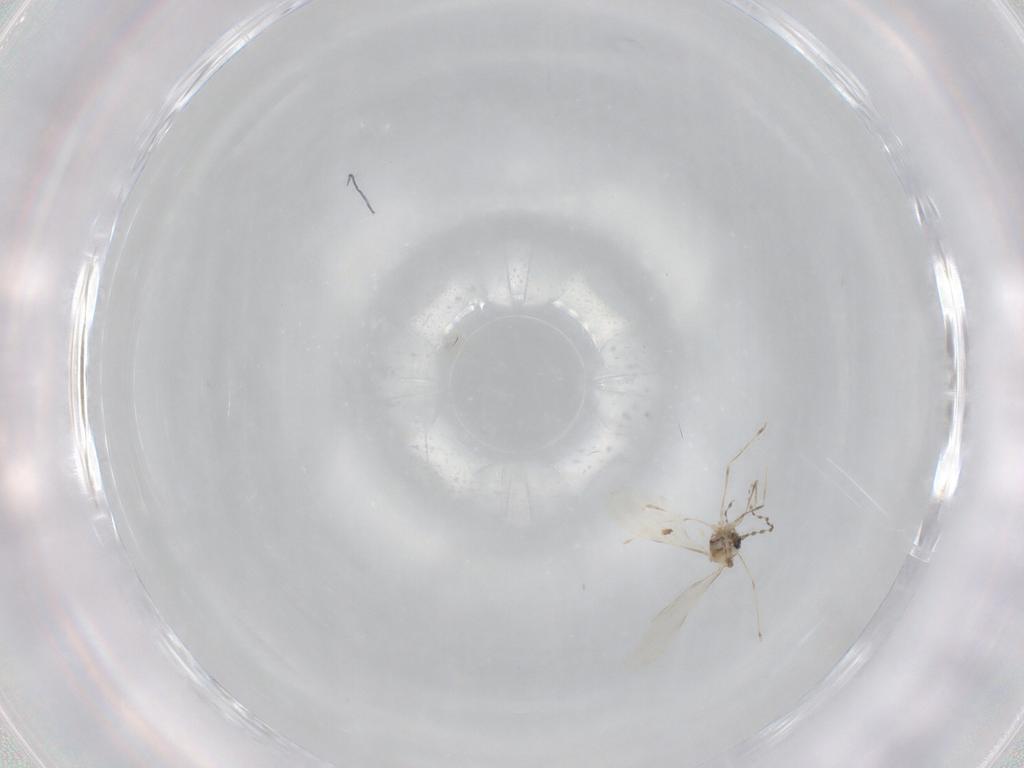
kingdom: Animalia
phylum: Arthropoda
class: Insecta
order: Diptera
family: Cecidomyiidae
